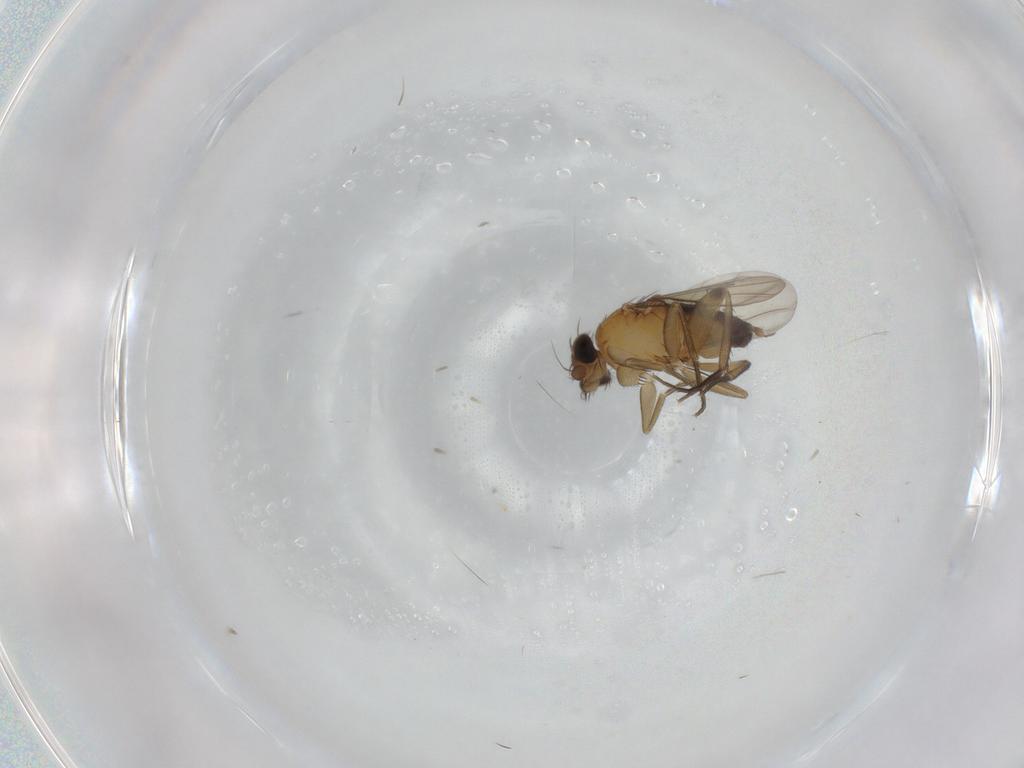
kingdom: Animalia
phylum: Arthropoda
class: Insecta
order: Diptera
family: Phoridae
